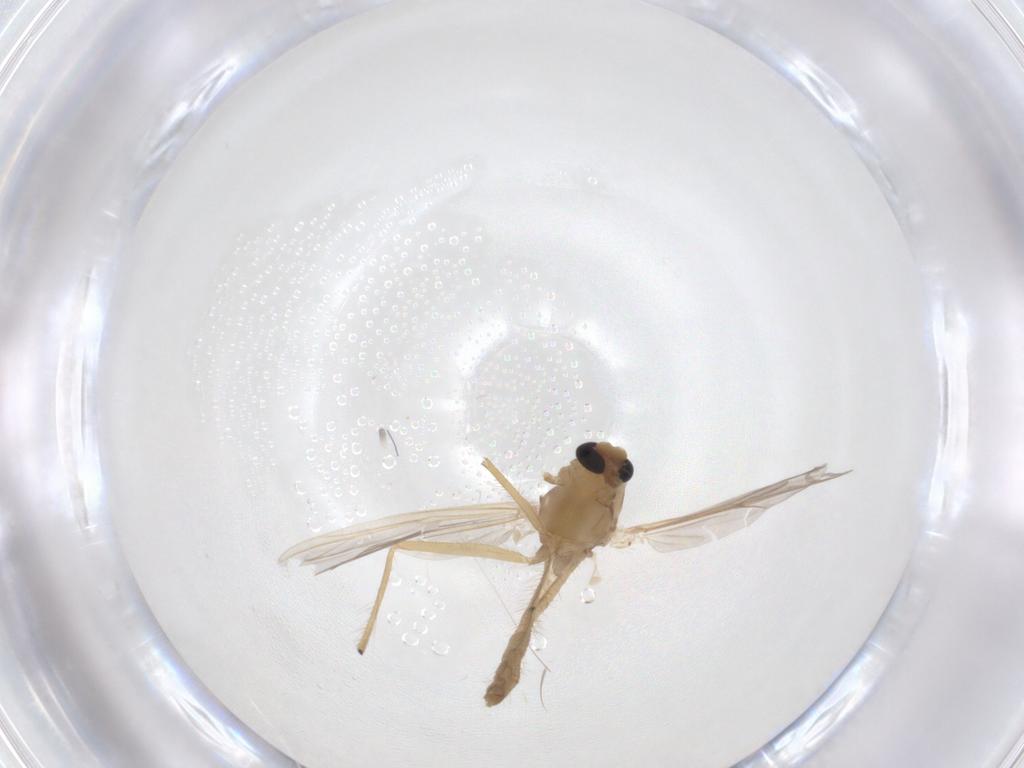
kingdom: Animalia
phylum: Arthropoda
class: Insecta
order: Diptera
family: Chironomidae
